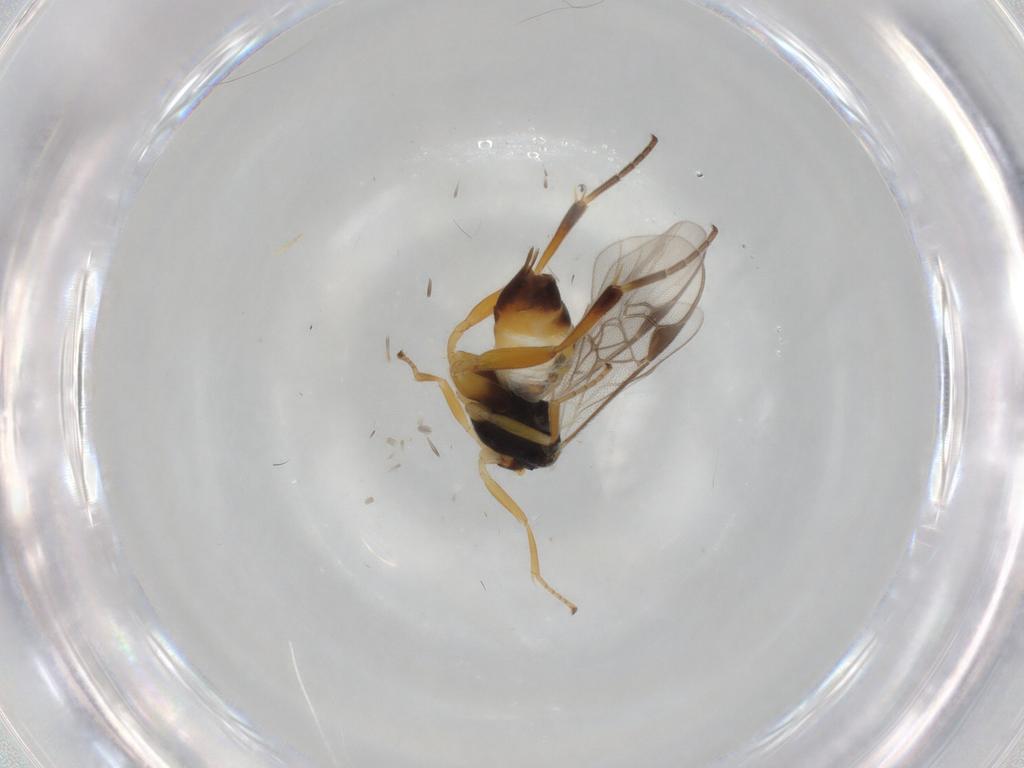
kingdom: Animalia
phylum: Arthropoda
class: Insecta
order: Hymenoptera
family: Braconidae
